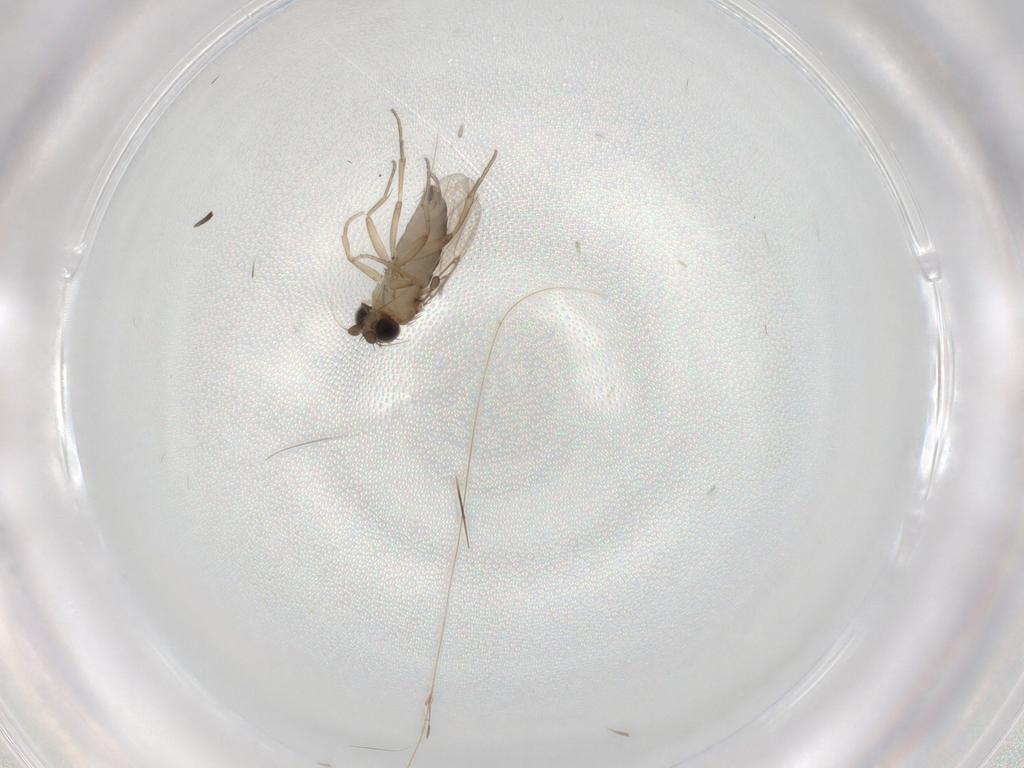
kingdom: Animalia
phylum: Arthropoda
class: Insecta
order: Diptera
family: Phoridae
